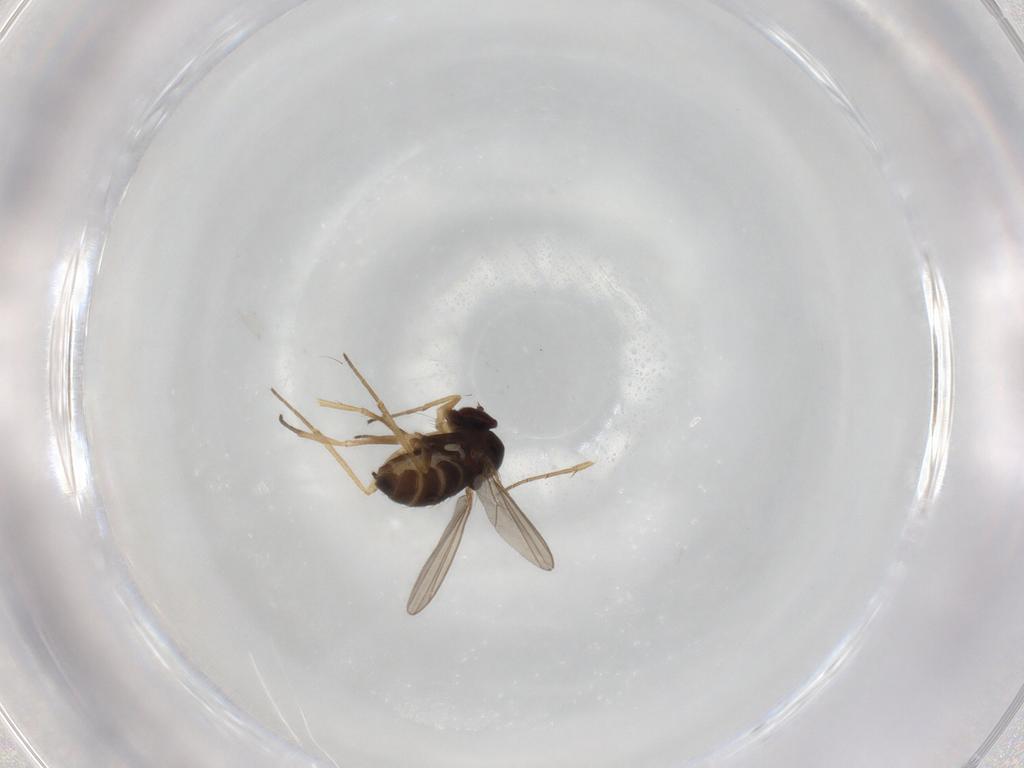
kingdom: Animalia
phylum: Arthropoda
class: Insecta
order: Diptera
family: Dolichopodidae
